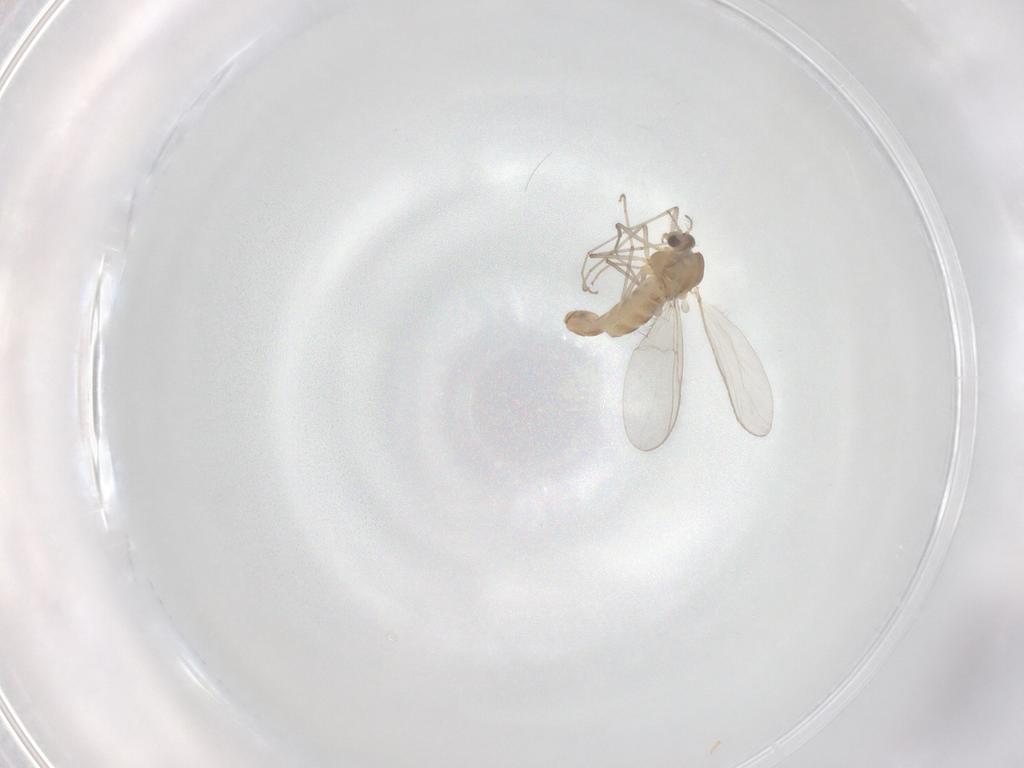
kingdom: Animalia
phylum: Arthropoda
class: Insecta
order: Diptera
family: Chironomidae
